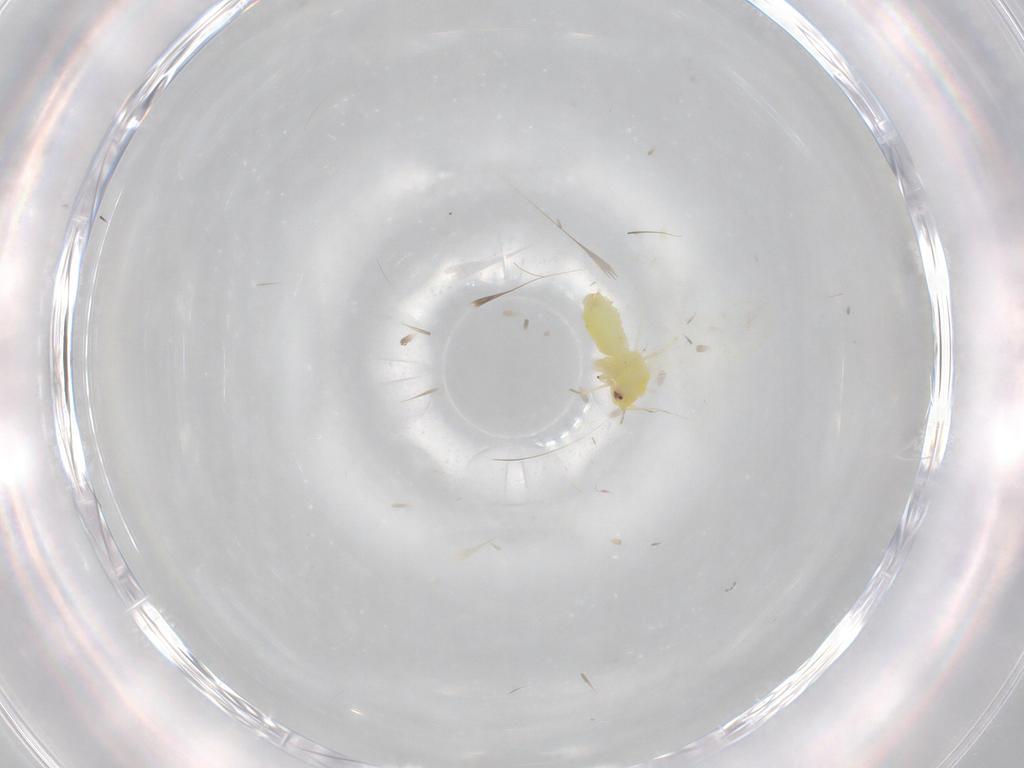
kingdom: Animalia
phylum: Arthropoda
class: Insecta
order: Hemiptera
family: Aleyrodidae
